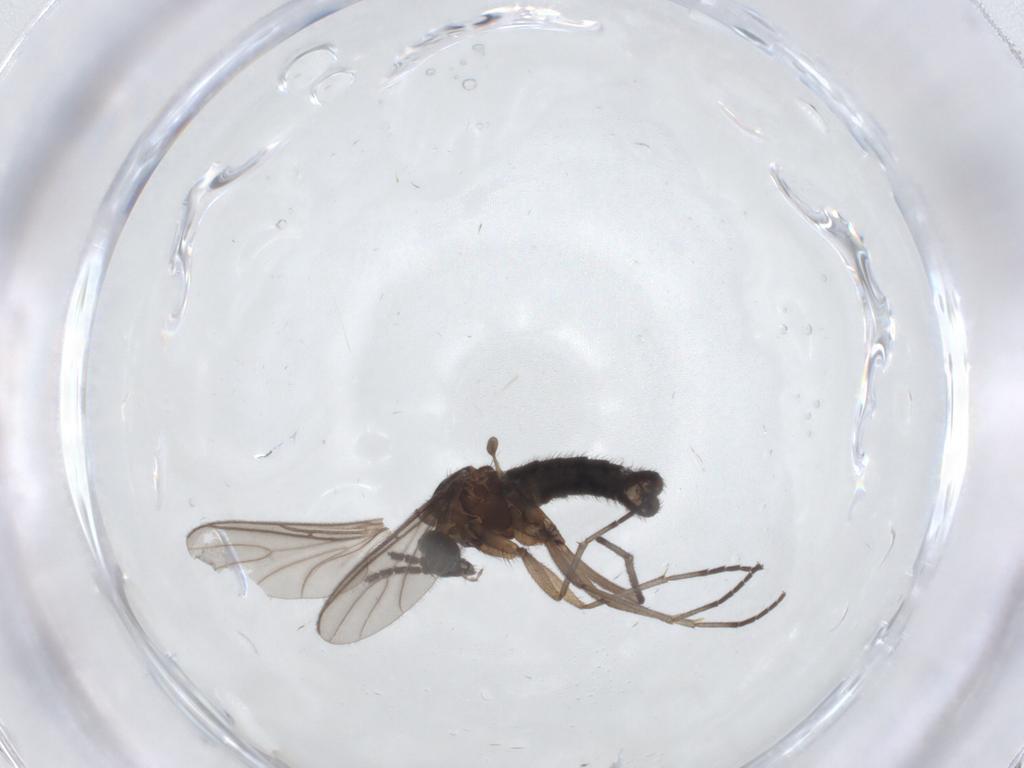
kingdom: Animalia
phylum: Arthropoda
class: Insecta
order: Diptera
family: Sciaridae
